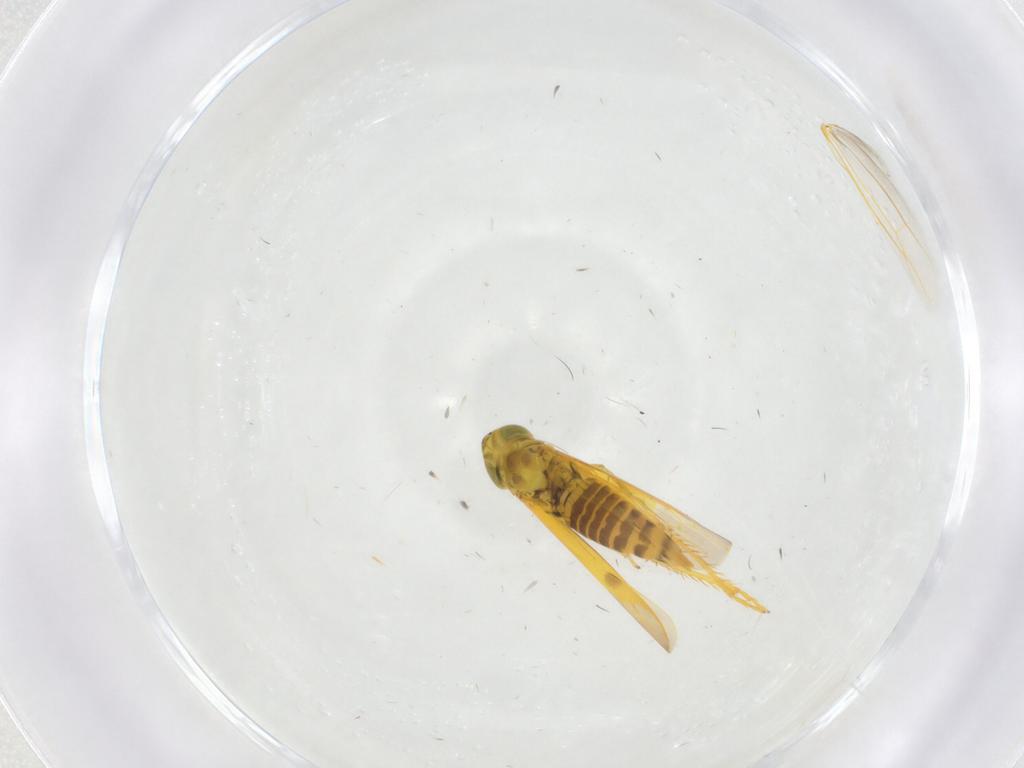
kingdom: Animalia
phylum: Arthropoda
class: Insecta
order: Hemiptera
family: Cicadellidae
